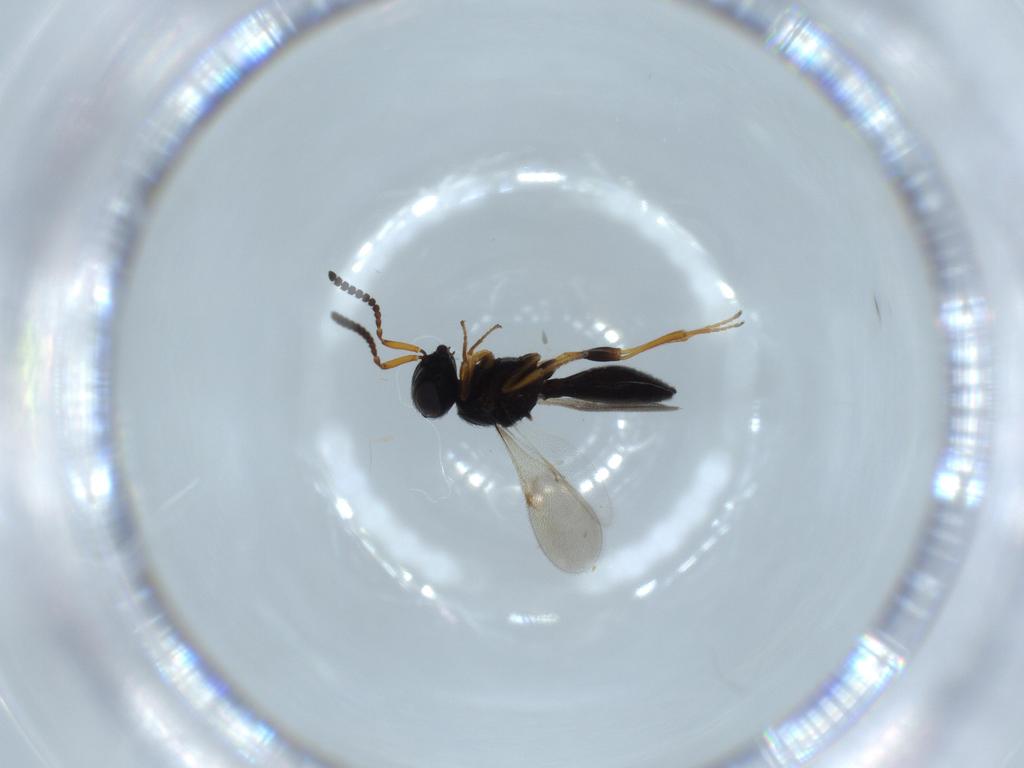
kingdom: Animalia
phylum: Arthropoda
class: Insecta
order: Hymenoptera
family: Scelionidae
